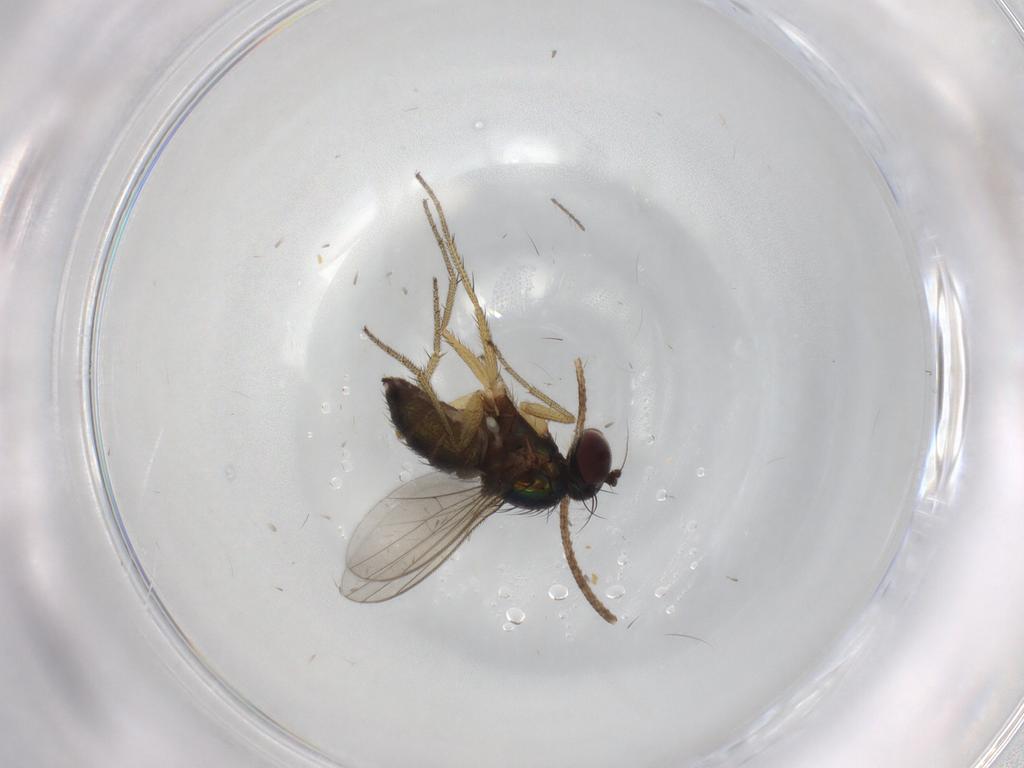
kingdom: Animalia
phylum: Arthropoda
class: Insecta
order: Diptera
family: Dolichopodidae
